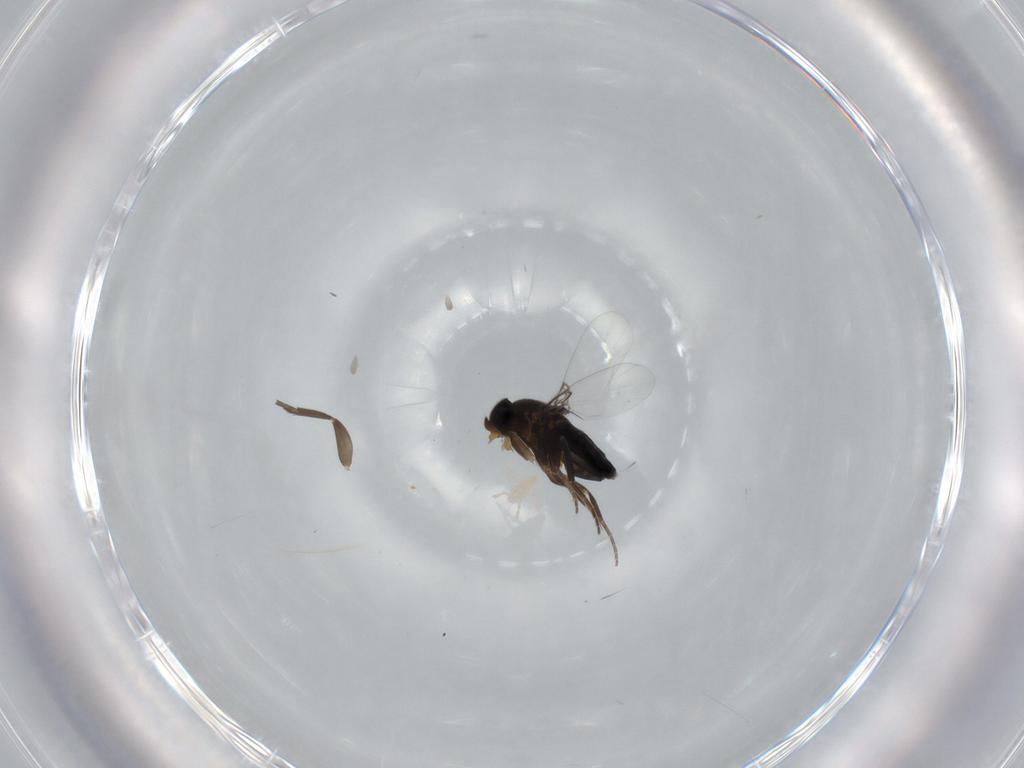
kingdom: Animalia
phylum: Arthropoda
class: Insecta
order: Diptera
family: Phoridae
